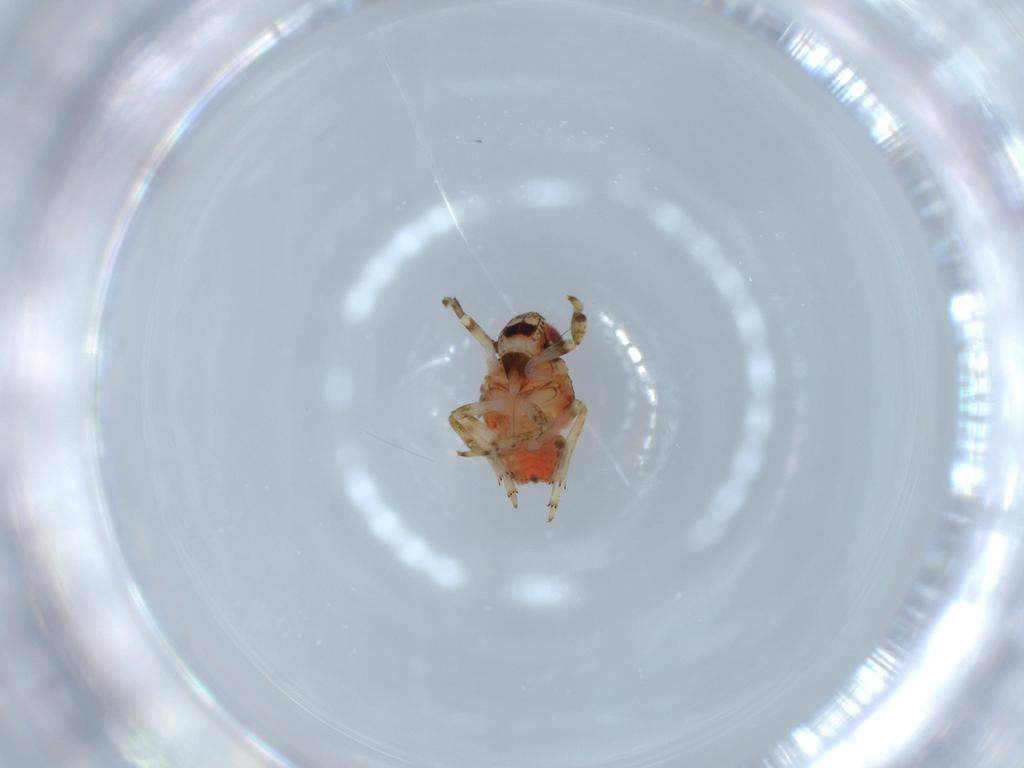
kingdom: Animalia
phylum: Arthropoda
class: Insecta
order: Hemiptera
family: Issidae
